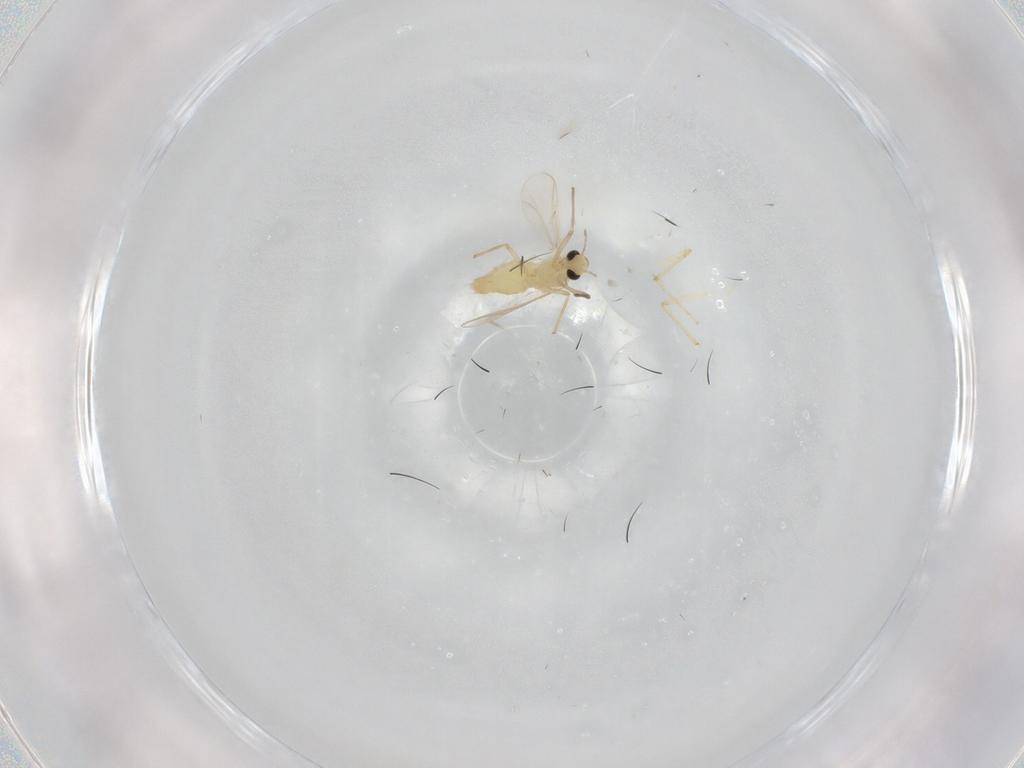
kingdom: Animalia
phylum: Arthropoda
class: Insecta
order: Diptera
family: Chironomidae
